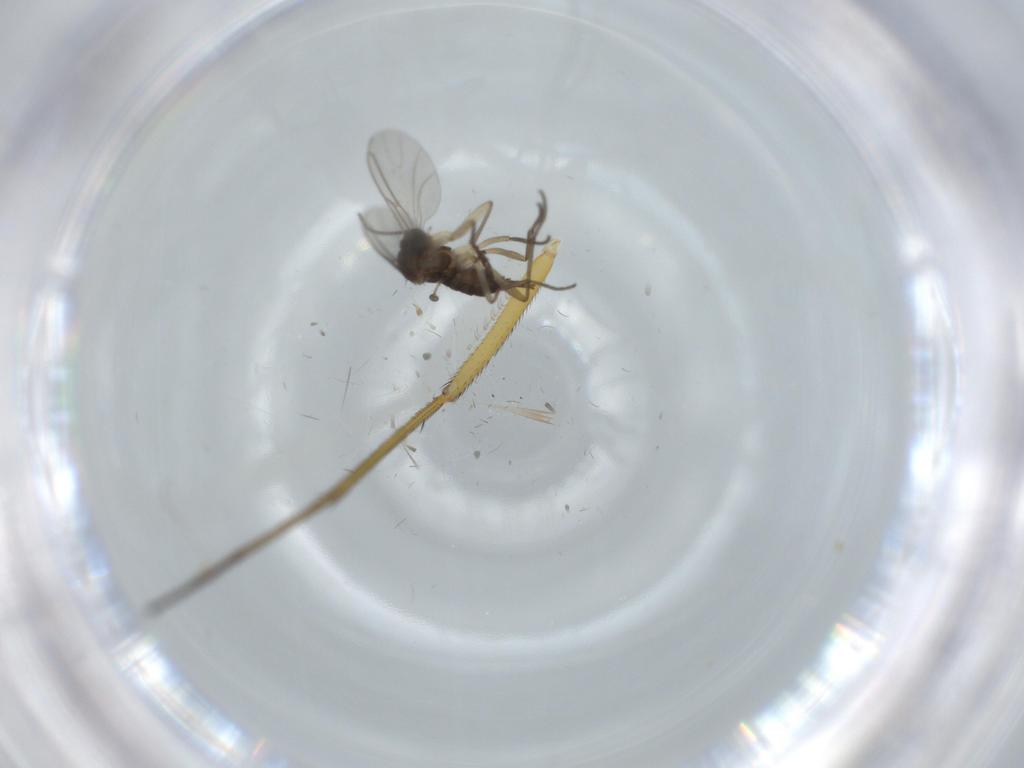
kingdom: Animalia
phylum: Arthropoda
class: Insecta
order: Diptera
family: Dolichopodidae
